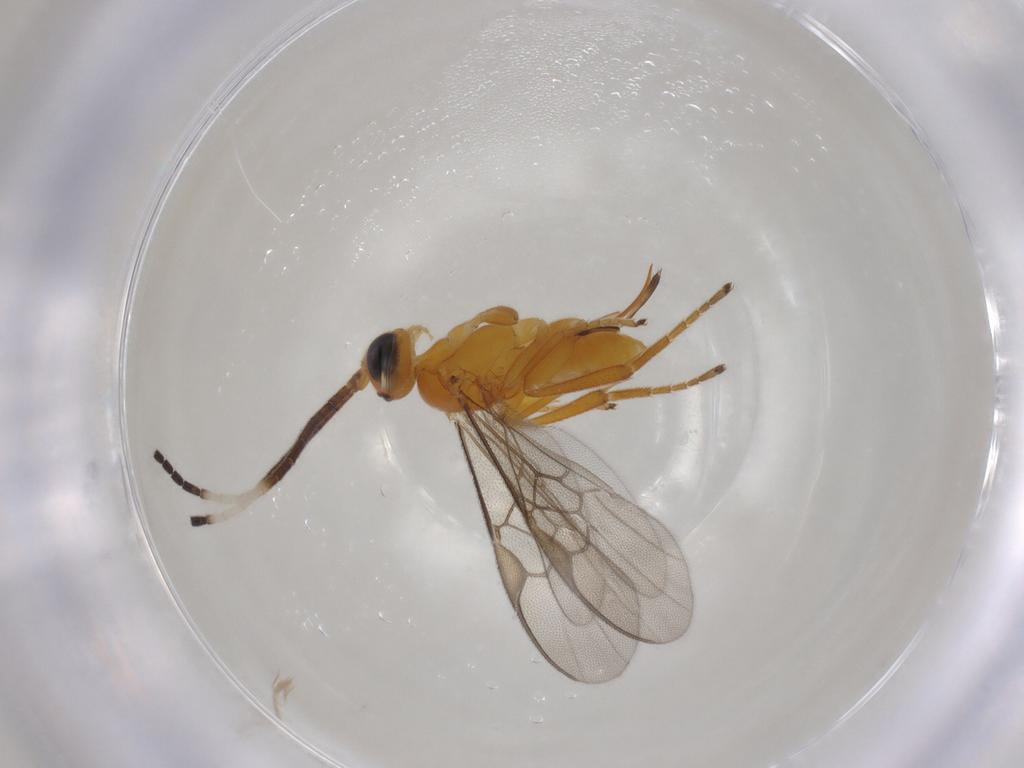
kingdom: Animalia
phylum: Arthropoda
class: Insecta
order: Hymenoptera
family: Braconidae
